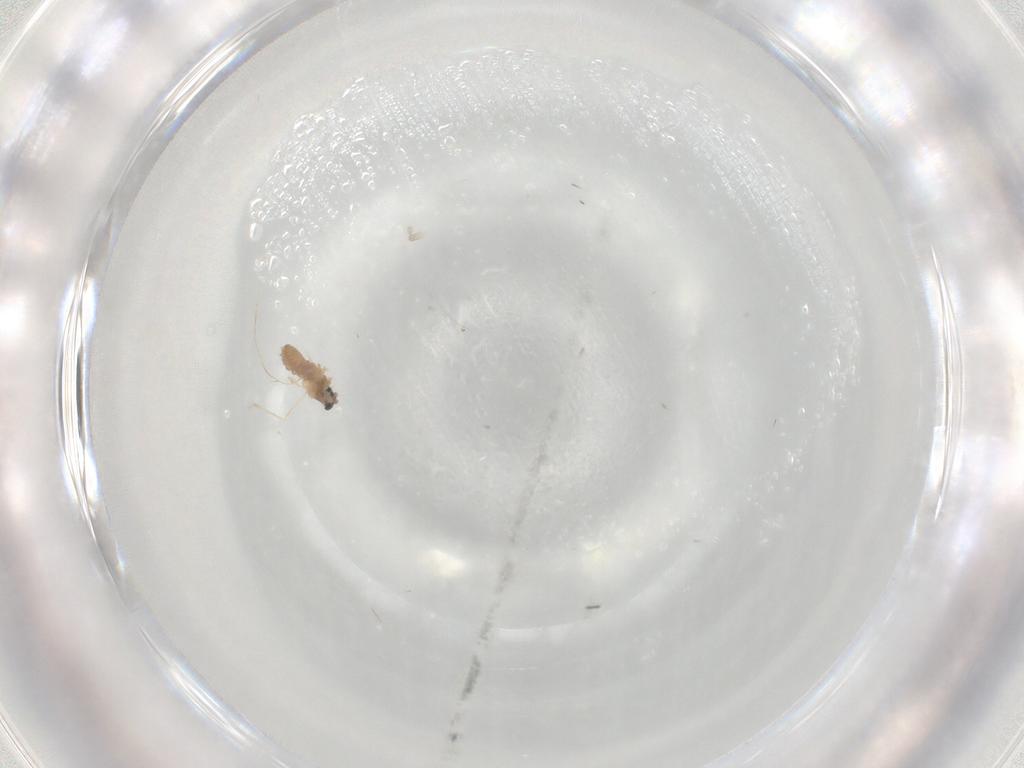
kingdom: Animalia
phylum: Arthropoda
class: Insecta
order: Diptera
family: Cecidomyiidae
